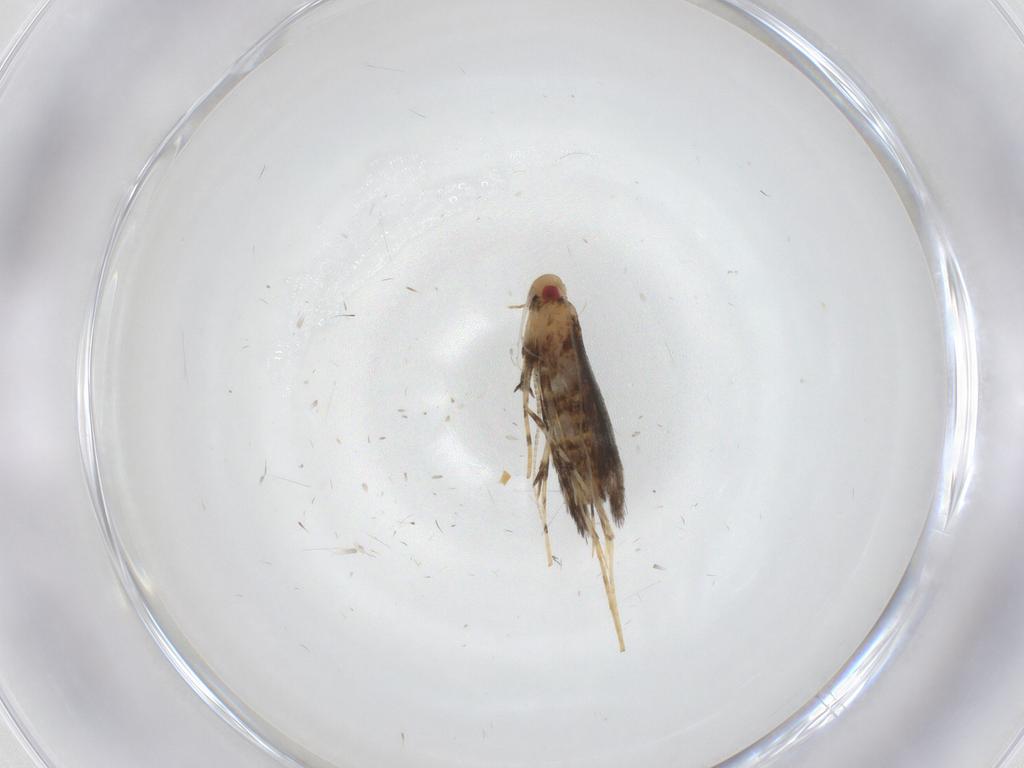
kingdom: Animalia
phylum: Arthropoda
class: Insecta
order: Lepidoptera
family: Gracillariidae
